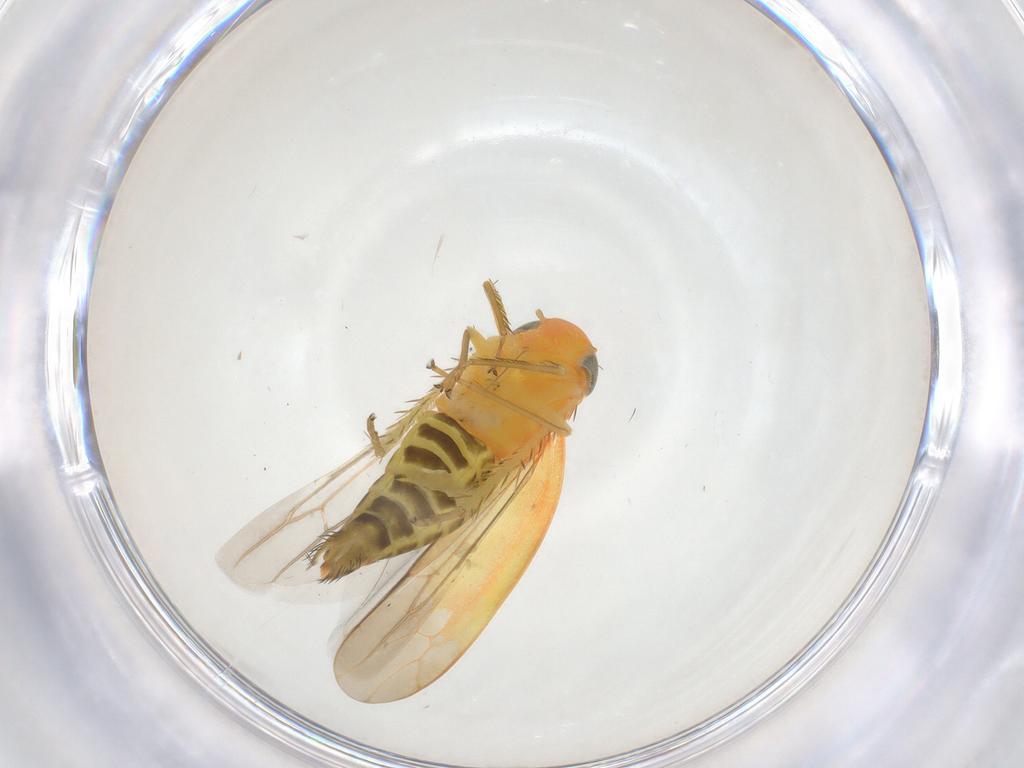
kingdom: Animalia
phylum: Arthropoda
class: Insecta
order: Hemiptera
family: Cicadellidae
